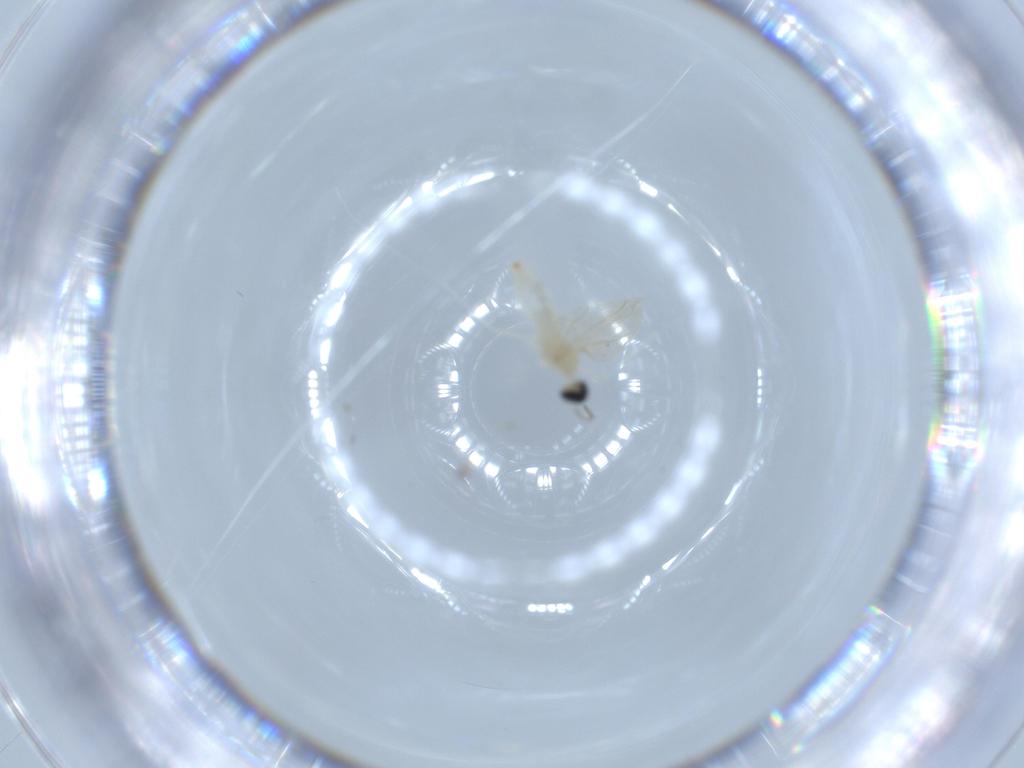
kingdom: Animalia
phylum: Arthropoda
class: Insecta
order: Diptera
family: Cecidomyiidae
